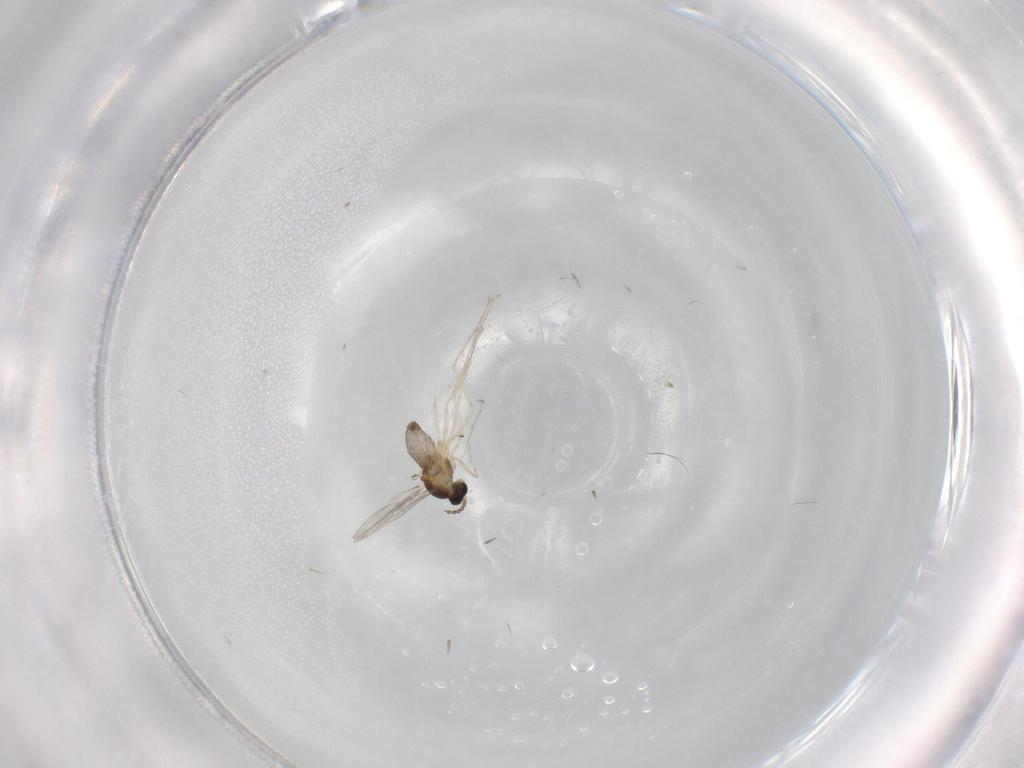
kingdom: Animalia
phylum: Arthropoda
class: Insecta
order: Diptera
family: Cecidomyiidae
